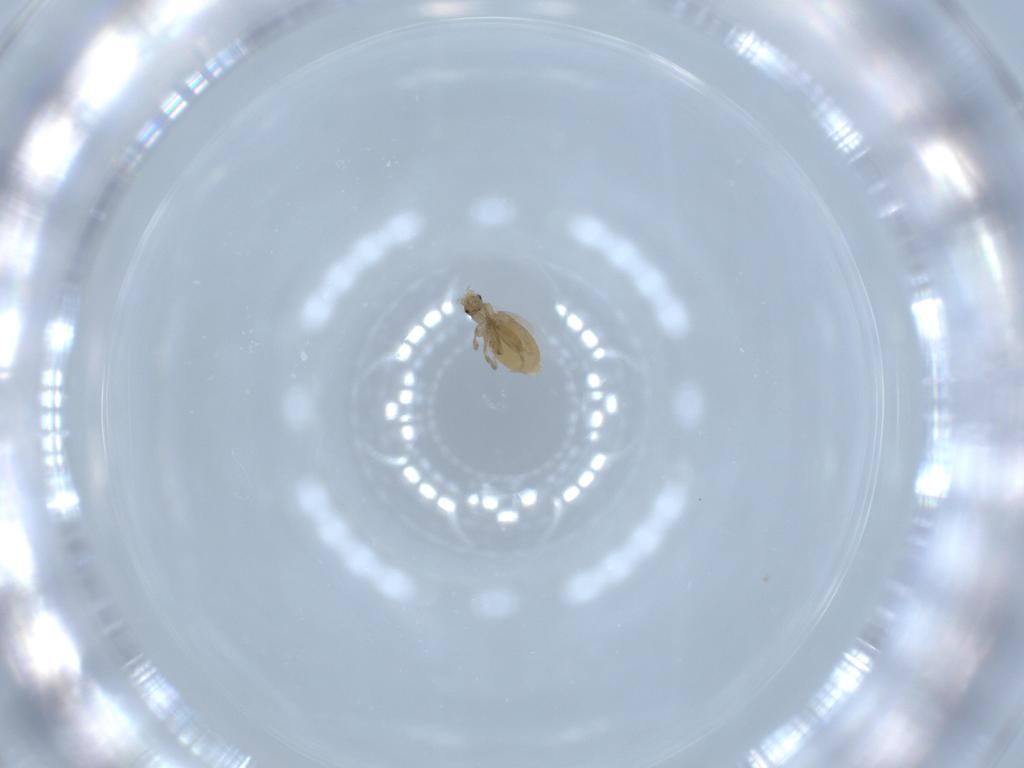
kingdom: Animalia
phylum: Arthropoda
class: Insecta
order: Diptera
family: Phoridae
